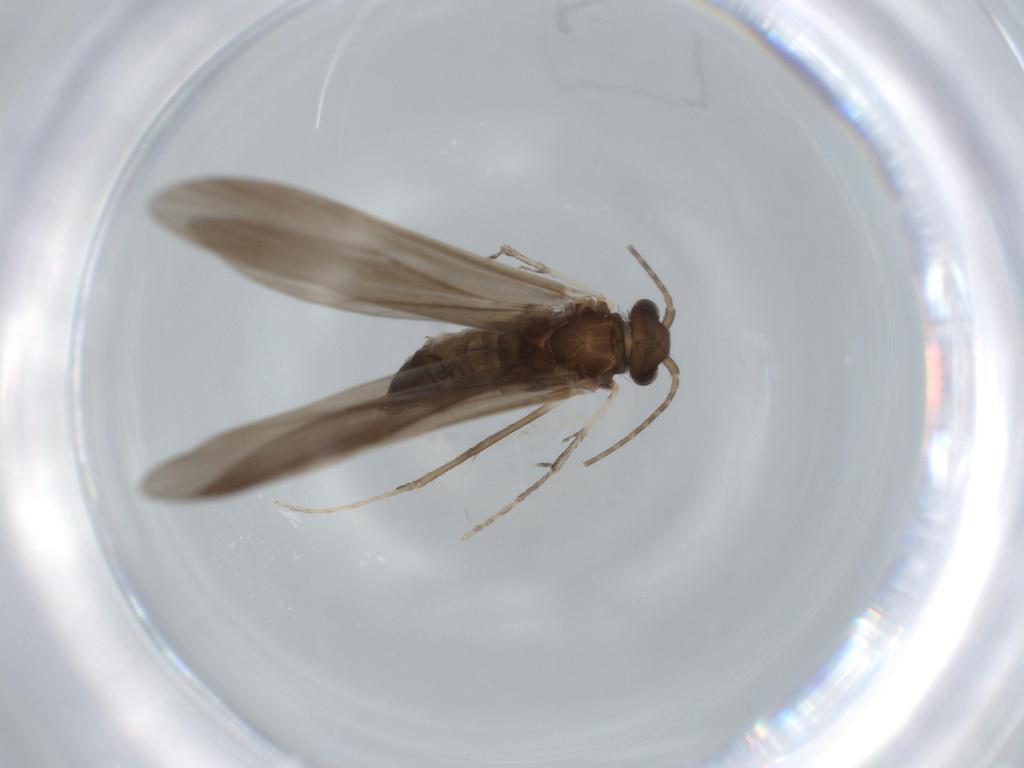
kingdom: Animalia
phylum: Arthropoda
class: Insecta
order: Trichoptera
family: Xiphocentronidae
